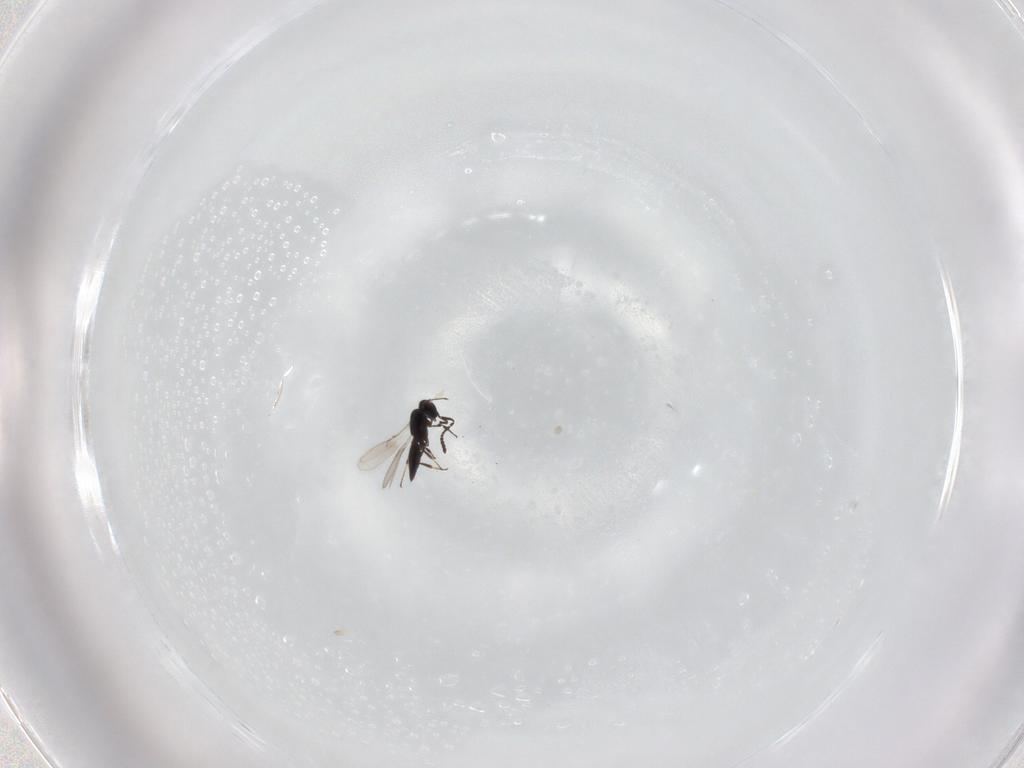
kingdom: Animalia
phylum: Arthropoda
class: Insecta
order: Hymenoptera
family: Scelionidae
